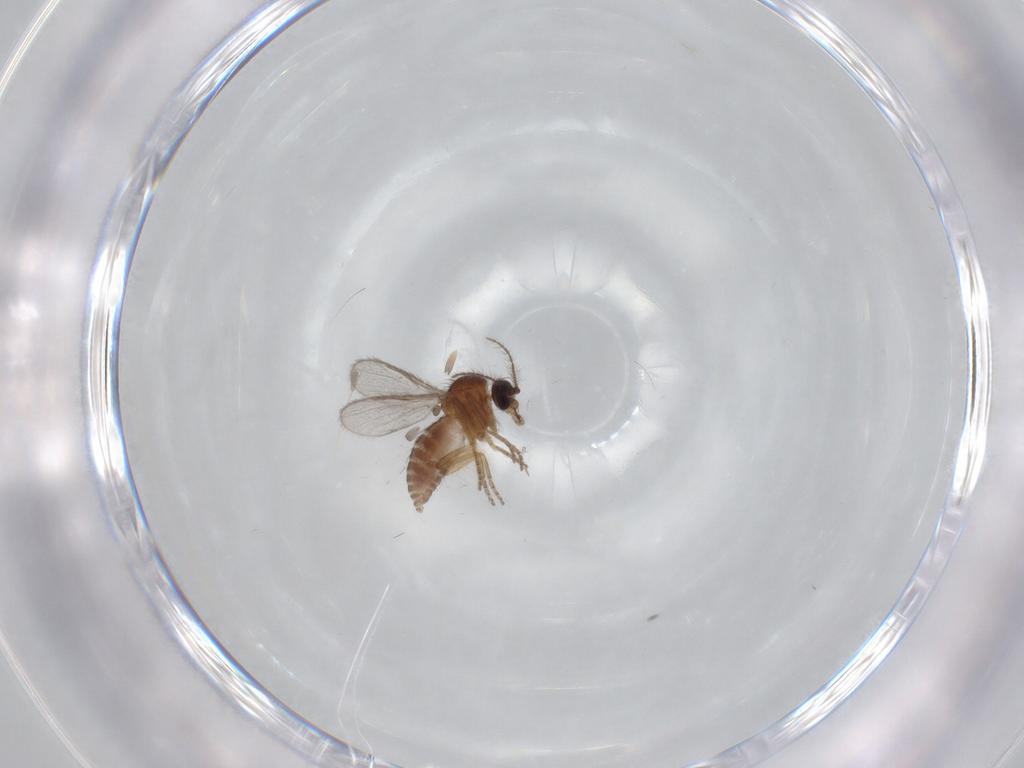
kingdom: Animalia
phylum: Arthropoda
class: Insecta
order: Diptera
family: Ceratopogonidae
